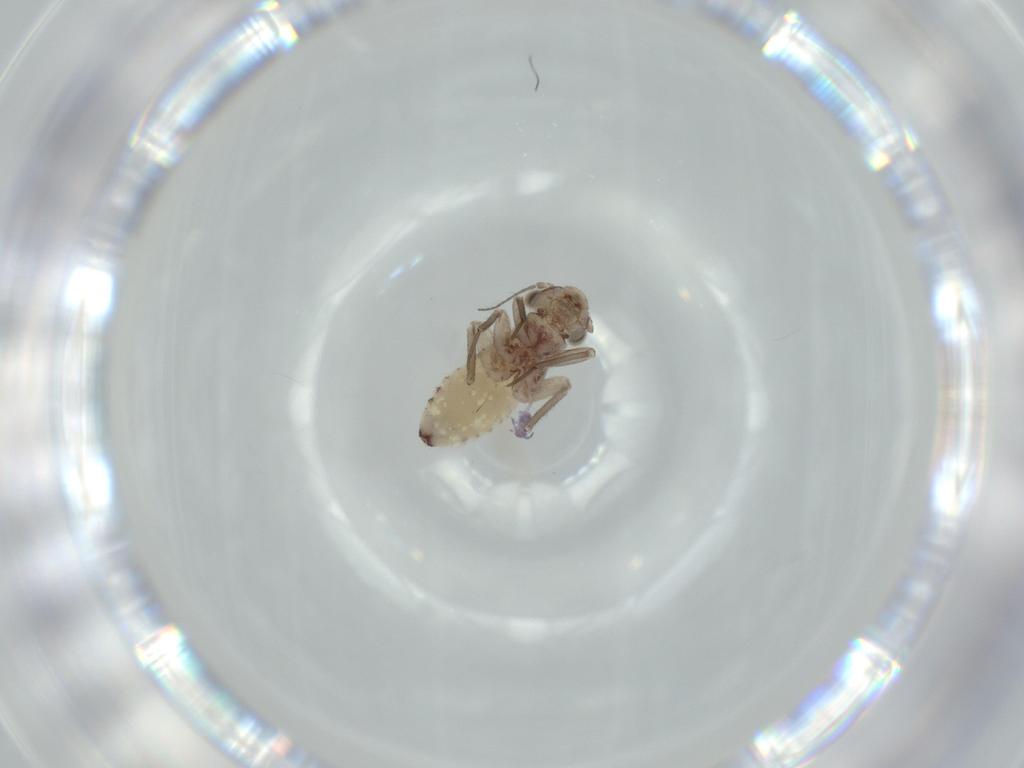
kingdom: Animalia
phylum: Arthropoda
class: Insecta
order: Psocodea
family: Lepidopsocidae
